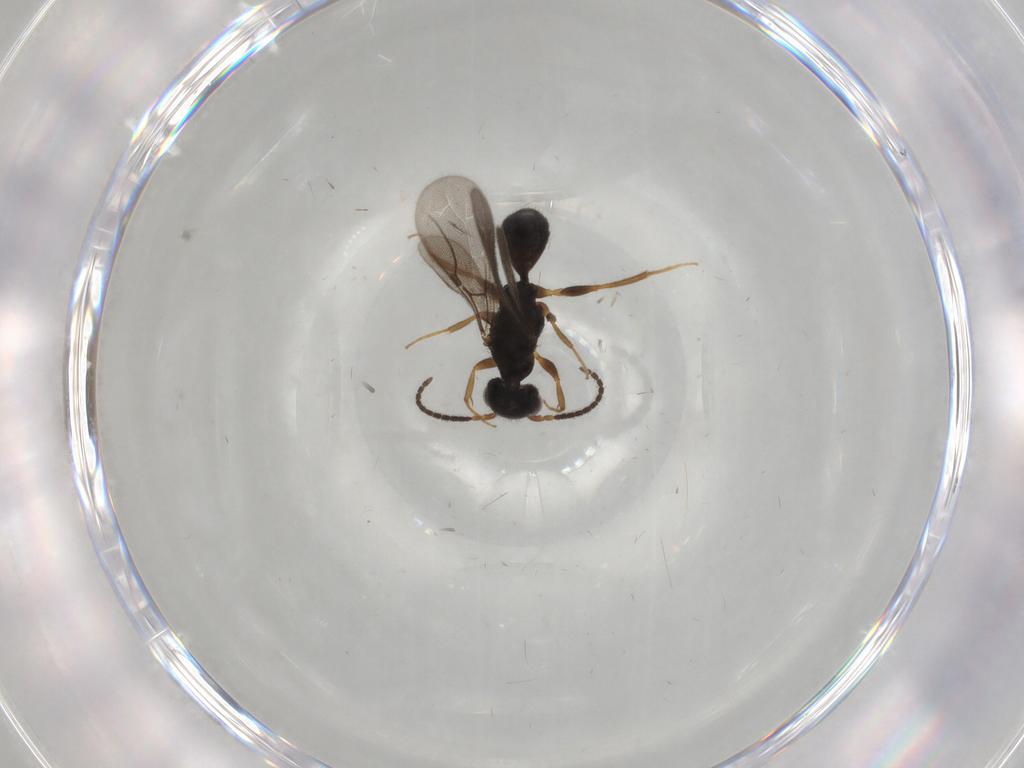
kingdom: Animalia
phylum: Arthropoda
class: Insecta
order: Hymenoptera
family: Bethylidae
